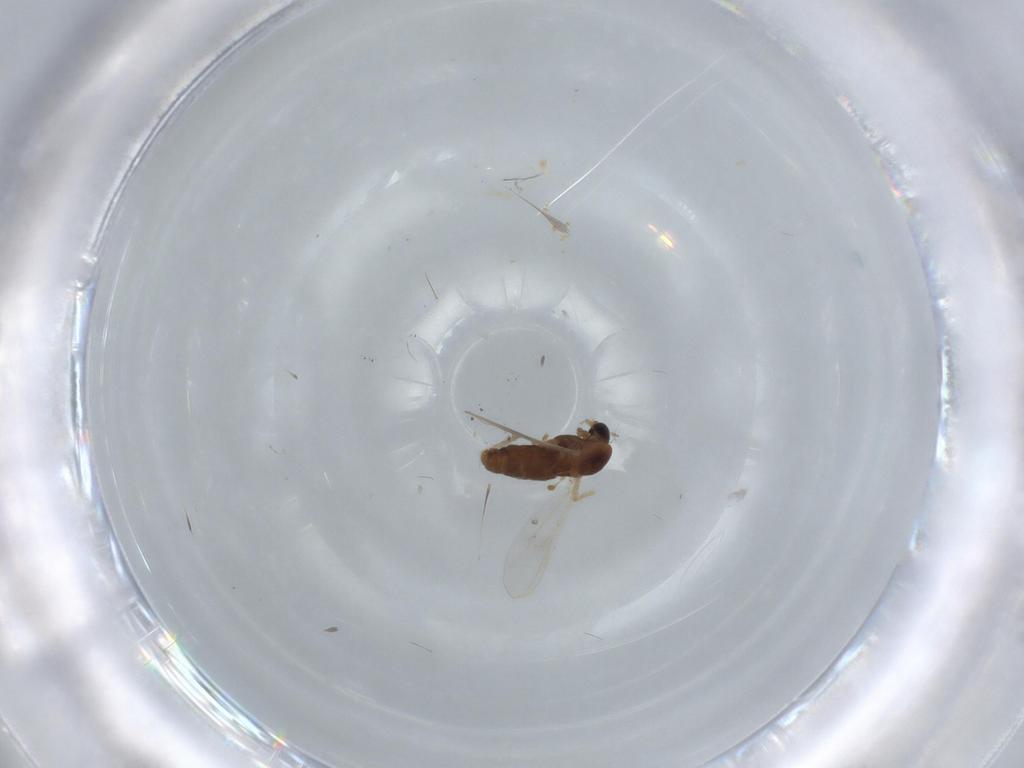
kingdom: Animalia
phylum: Arthropoda
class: Insecta
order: Diptera
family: Chironomidae
